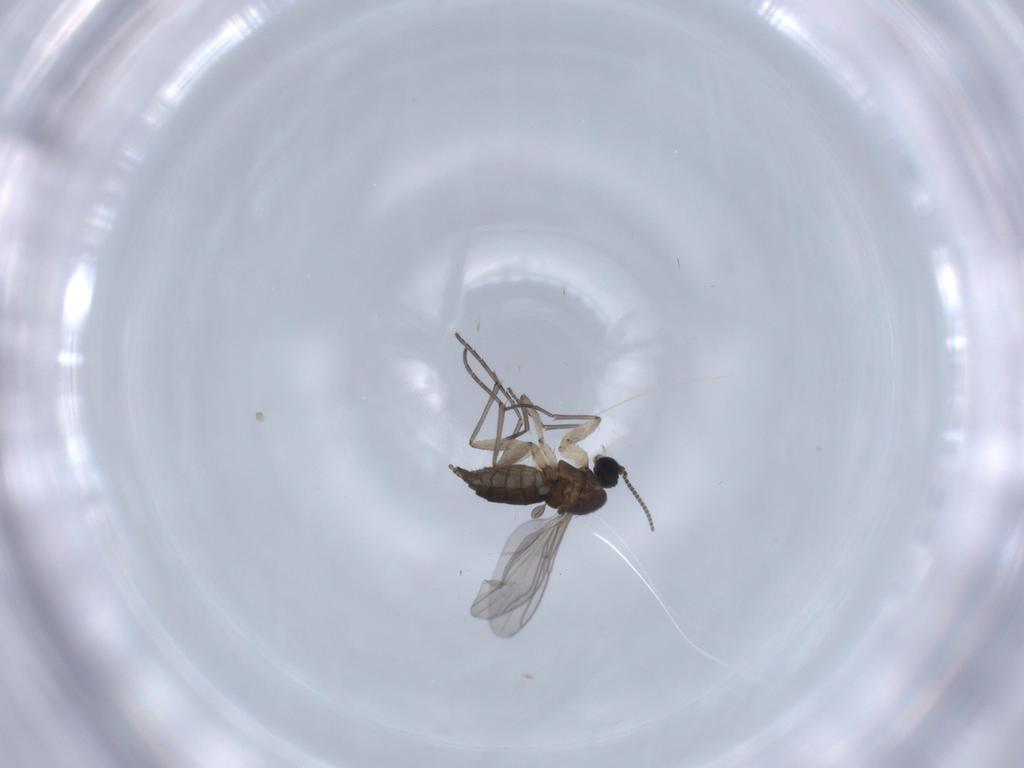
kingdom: Animalia
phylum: Arthropoda
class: Insecta
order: Diptera
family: Sciaridae
